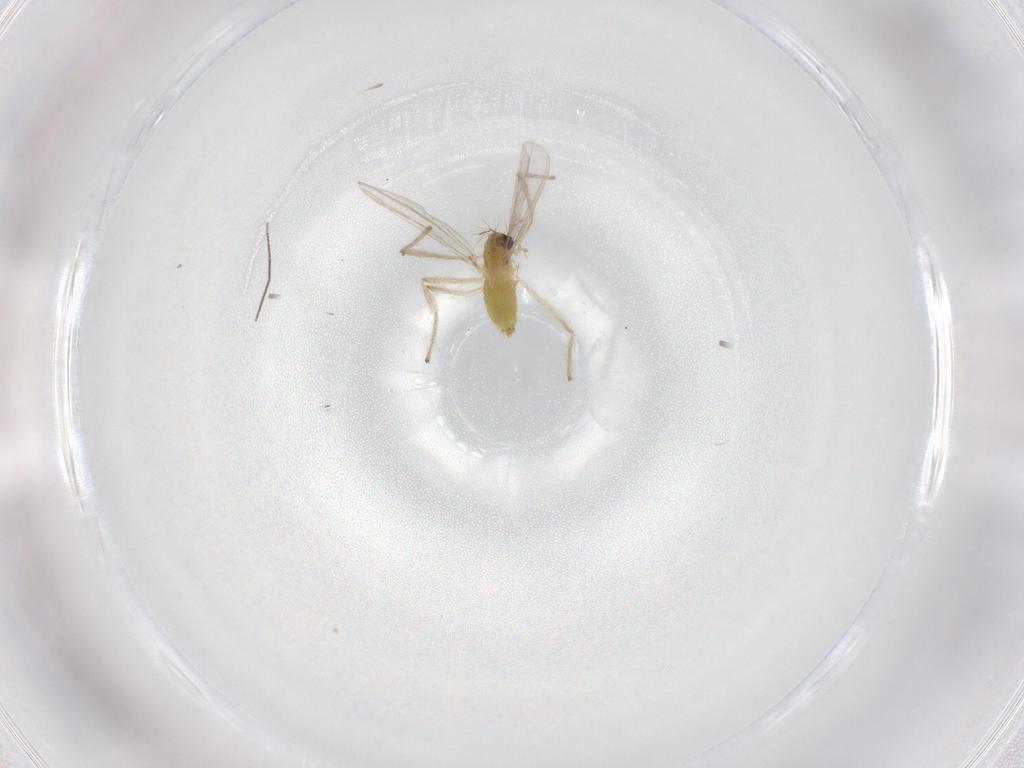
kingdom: Animalia
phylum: Arthropoda
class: Insecta
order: Diptera
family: Chironomidae
